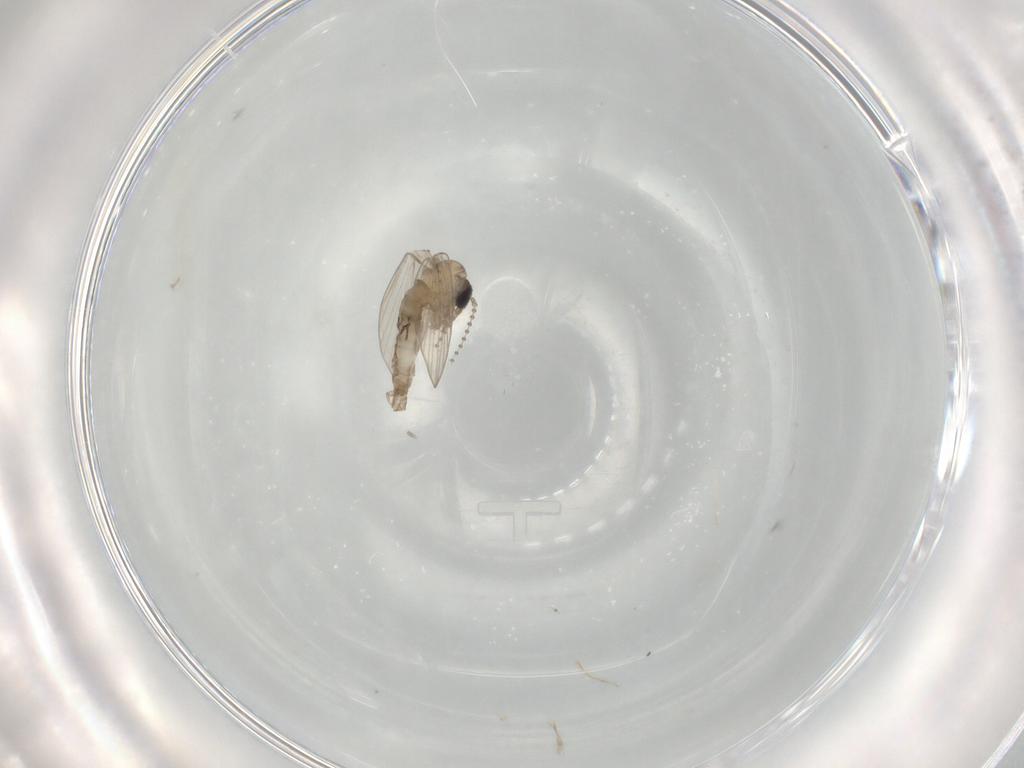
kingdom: Animalia
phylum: Arthropoda
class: Insecta
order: Diptera
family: Psychodidae
